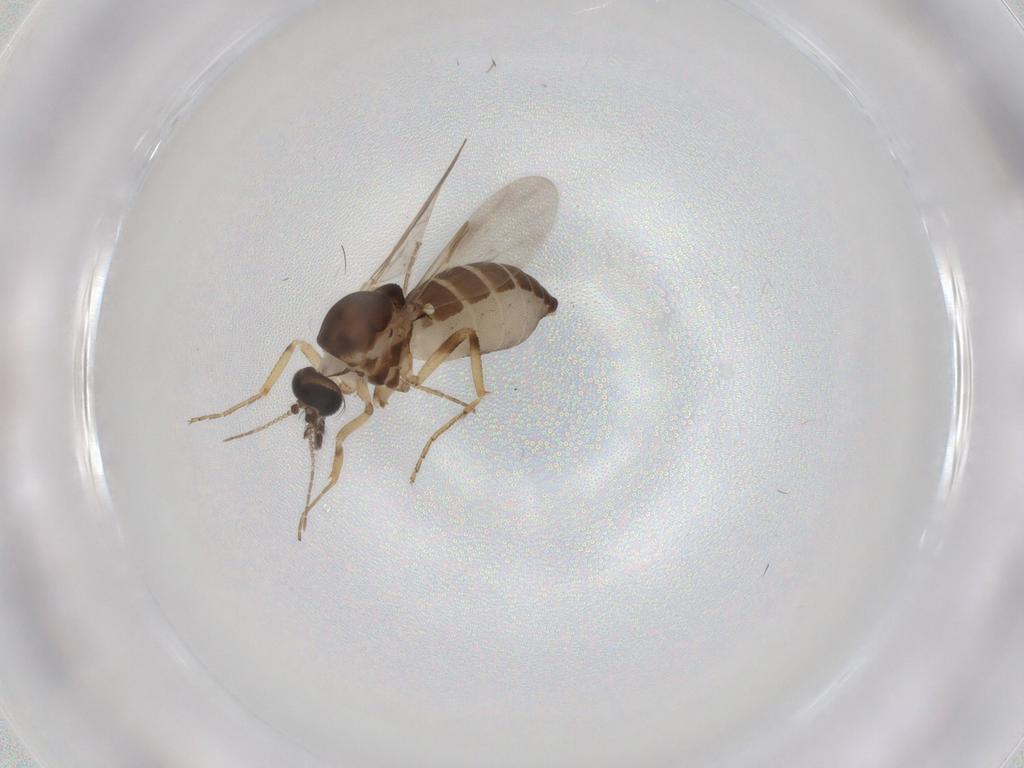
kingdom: Animalia
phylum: Arthropoda
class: Insecta
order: Diptera
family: Ceratopogonidae
